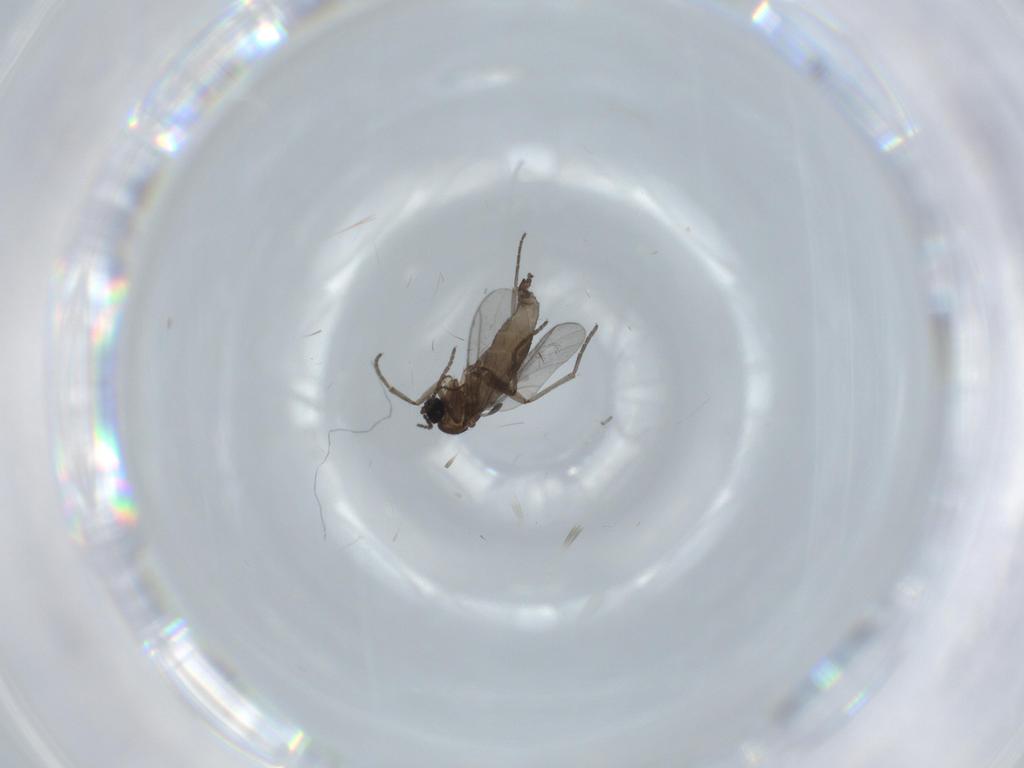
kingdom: Animalia
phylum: Arthropoda
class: Insecta
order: Diptera
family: Cecidomyiidae
